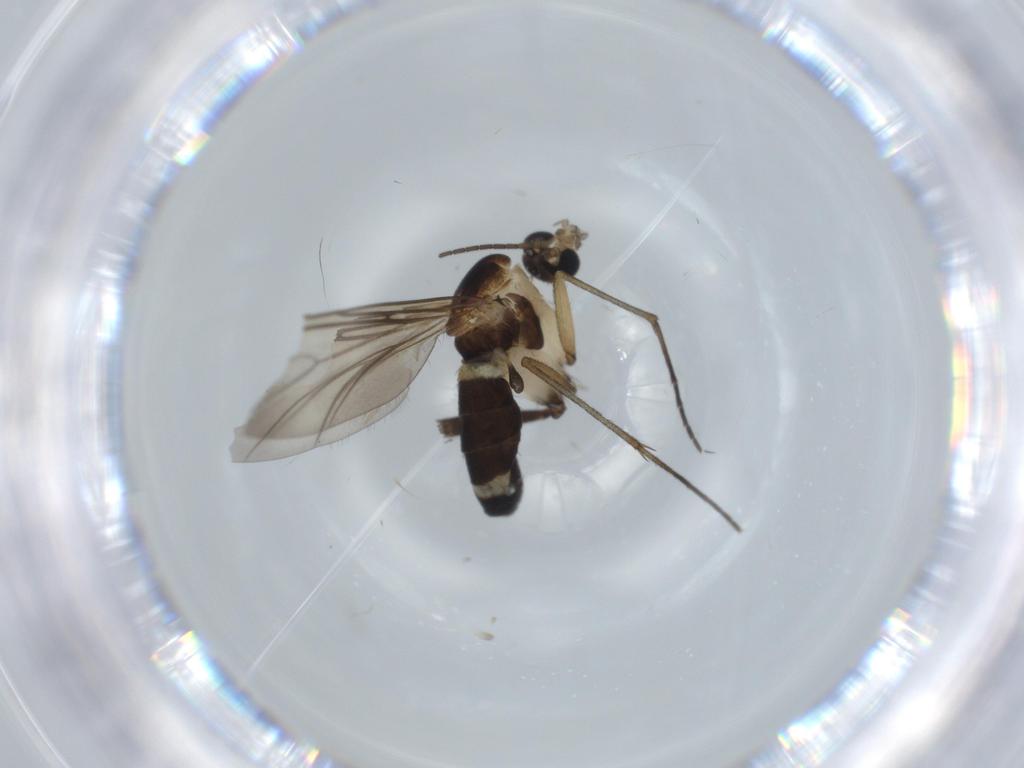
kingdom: Animalia
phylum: Arthropoda
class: Insecta
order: Diptera
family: Sciaridae
